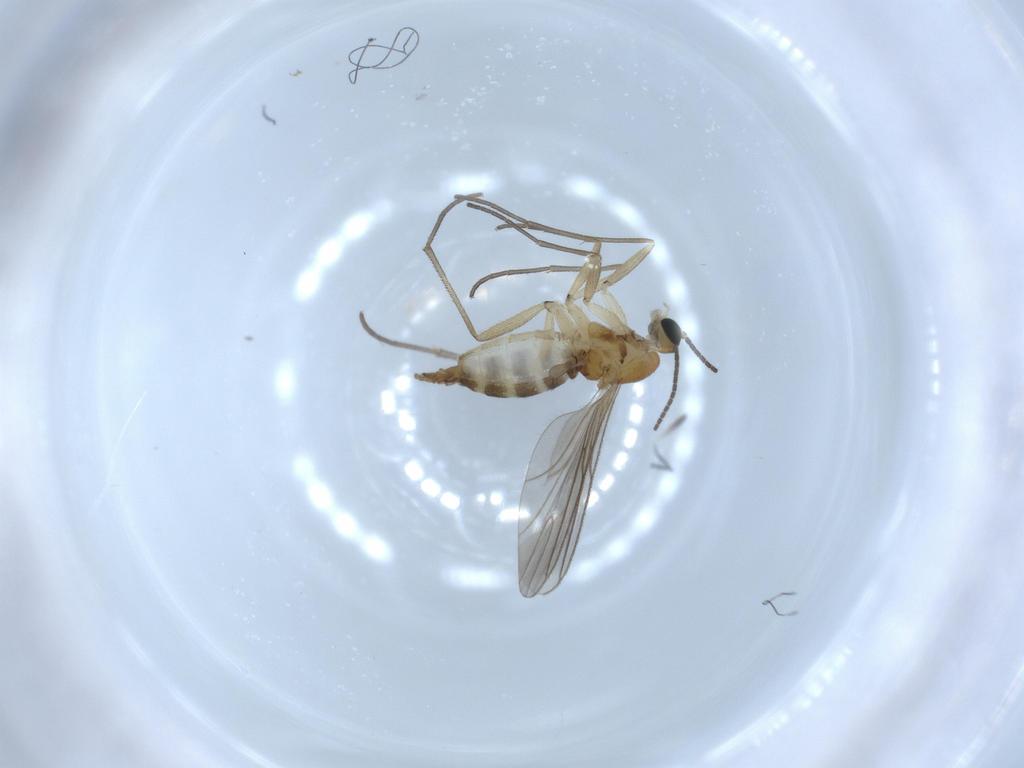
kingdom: Animalia
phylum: Arthropoda
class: Insecta
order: Diptera
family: Sciaridae
